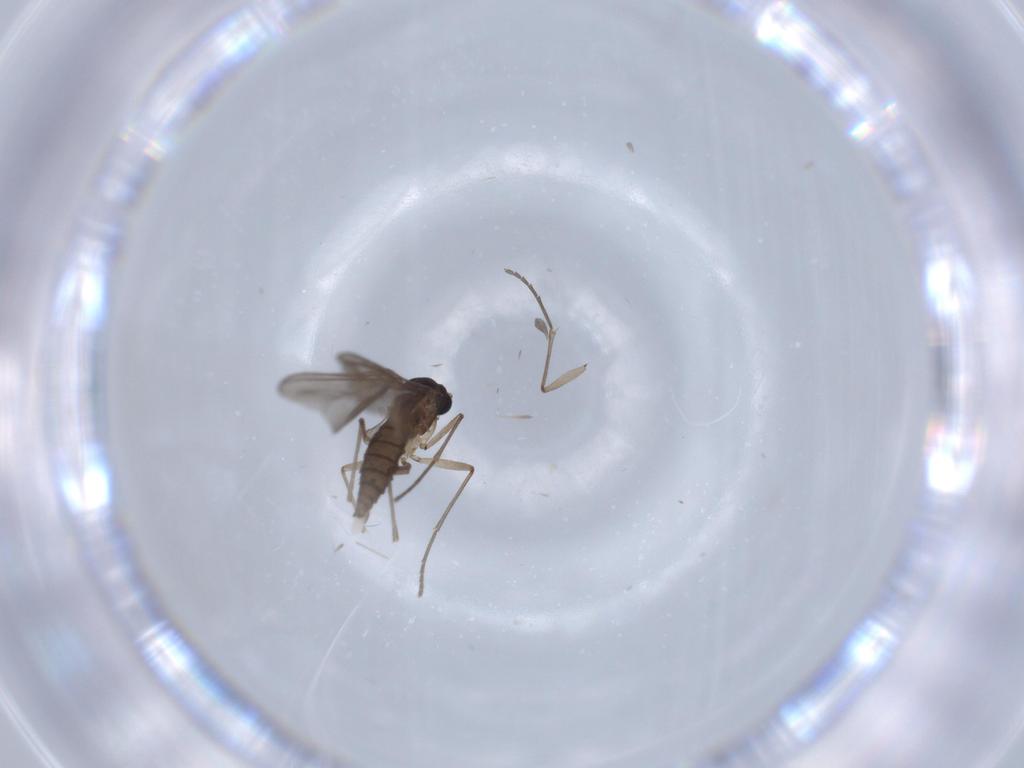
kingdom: Animalia
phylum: Arthropoda
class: Insecta
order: Diptera
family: Sciaridae
